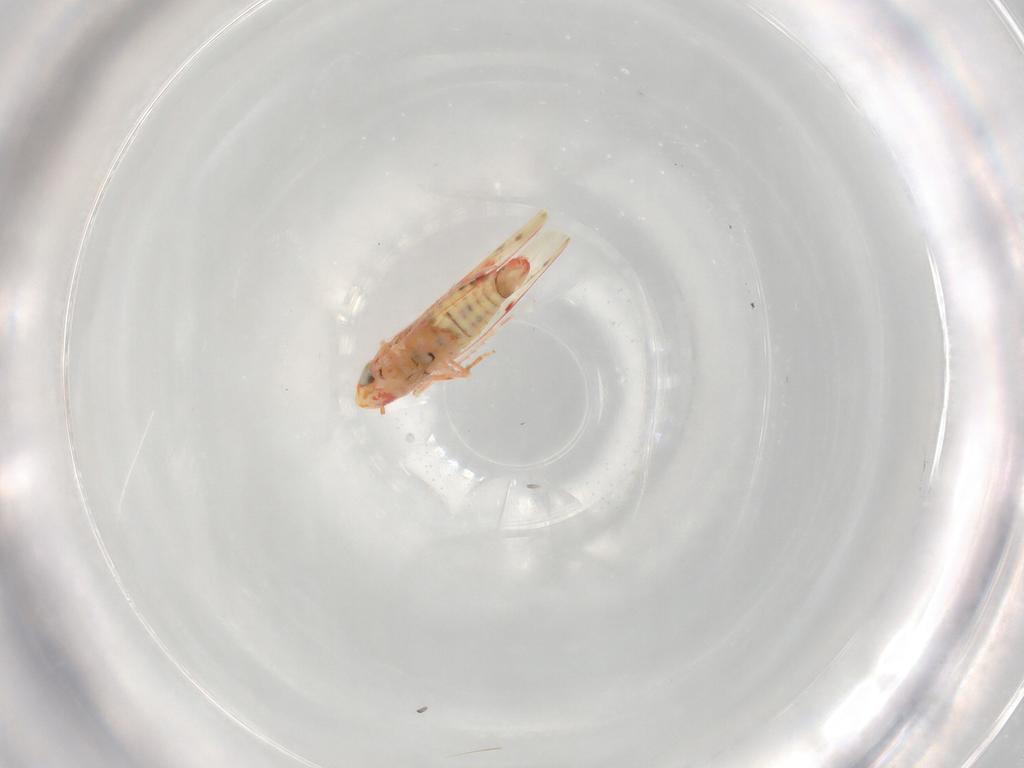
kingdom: Animalia
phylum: Arthropoda
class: Insecta
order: Hemiptera
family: Cicadellidae
